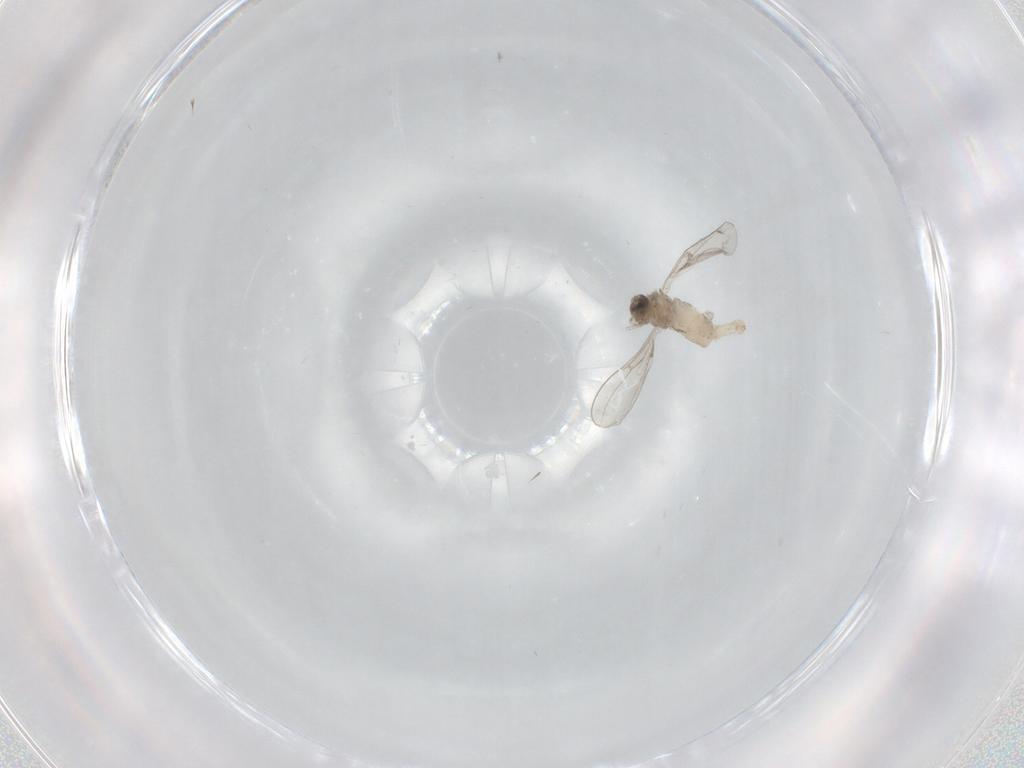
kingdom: Animalia
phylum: Arthropoda
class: Insecta
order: Diptera
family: Cecidomyiidae
